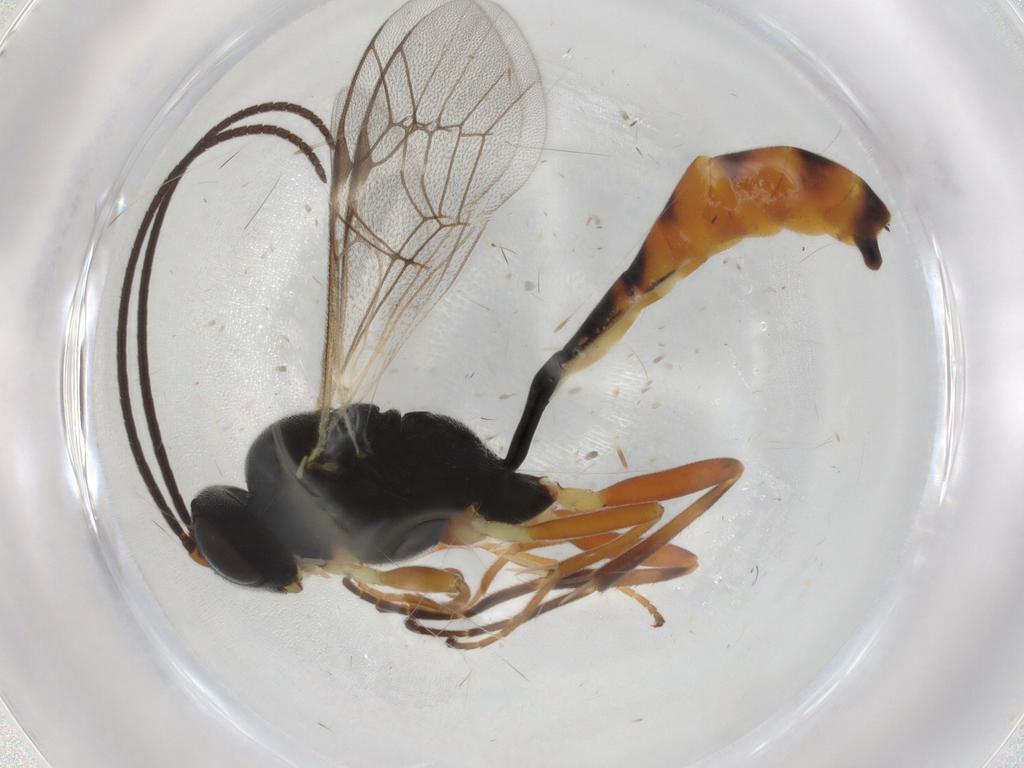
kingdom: Animalia
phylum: Arthropoda
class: Insecta
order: Hymenoptera
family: Ichneumonidae
